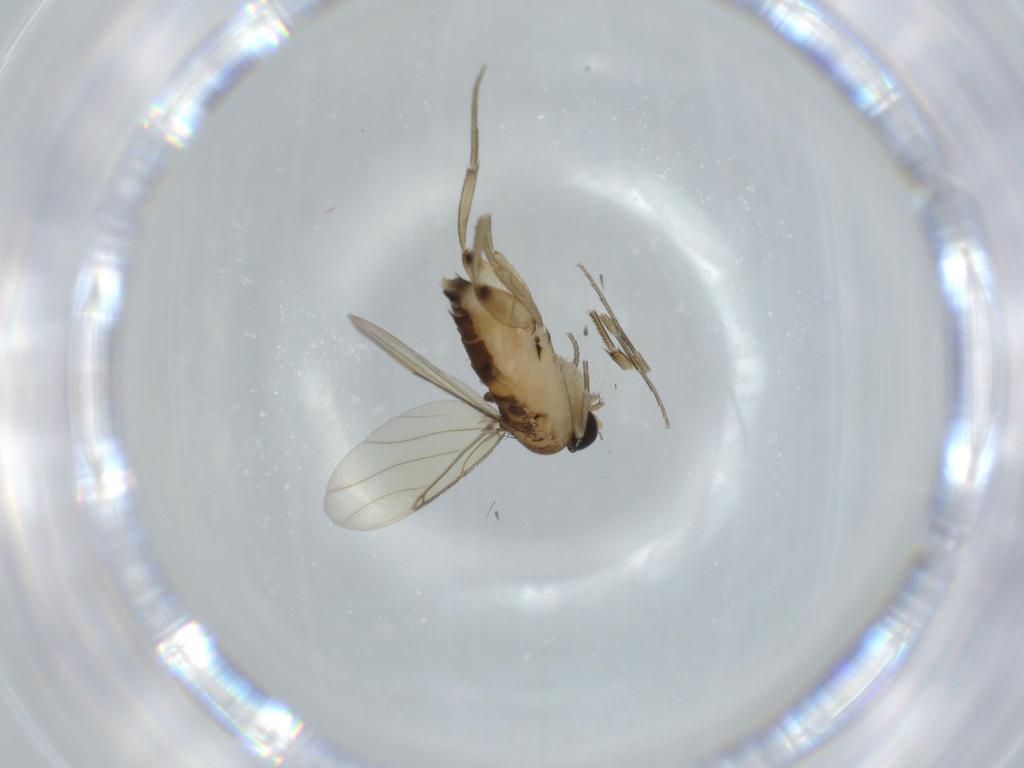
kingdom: Animalia
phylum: Arthropoda
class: Insecta
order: Diptera
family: Phoridae
